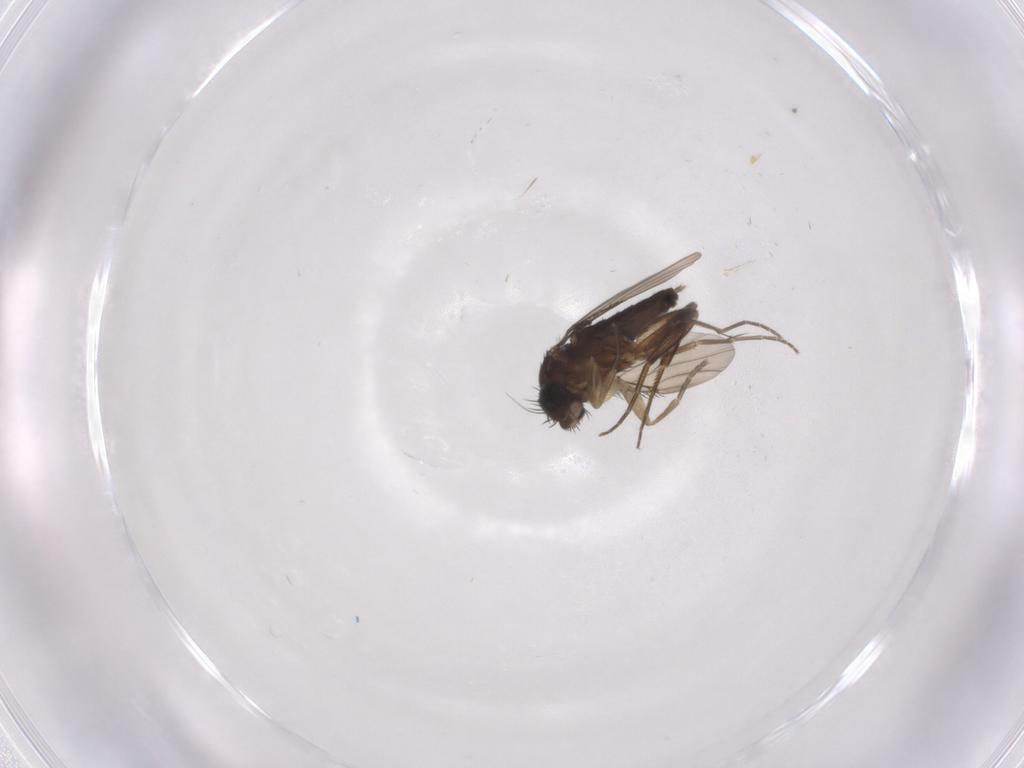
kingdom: Animalia
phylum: Arthropoda
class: Insecta
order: Diptera
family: Phoridae
